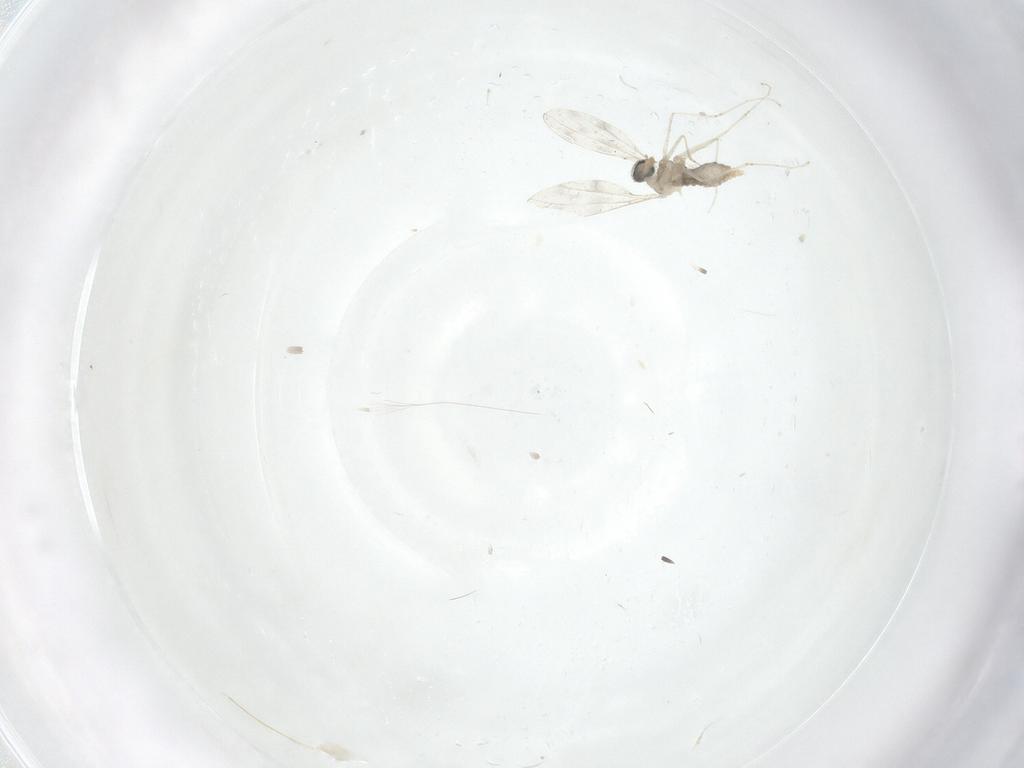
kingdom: Animalia
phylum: Arthropoda
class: Insecta
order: Diptera
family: Cecidomyiidae
